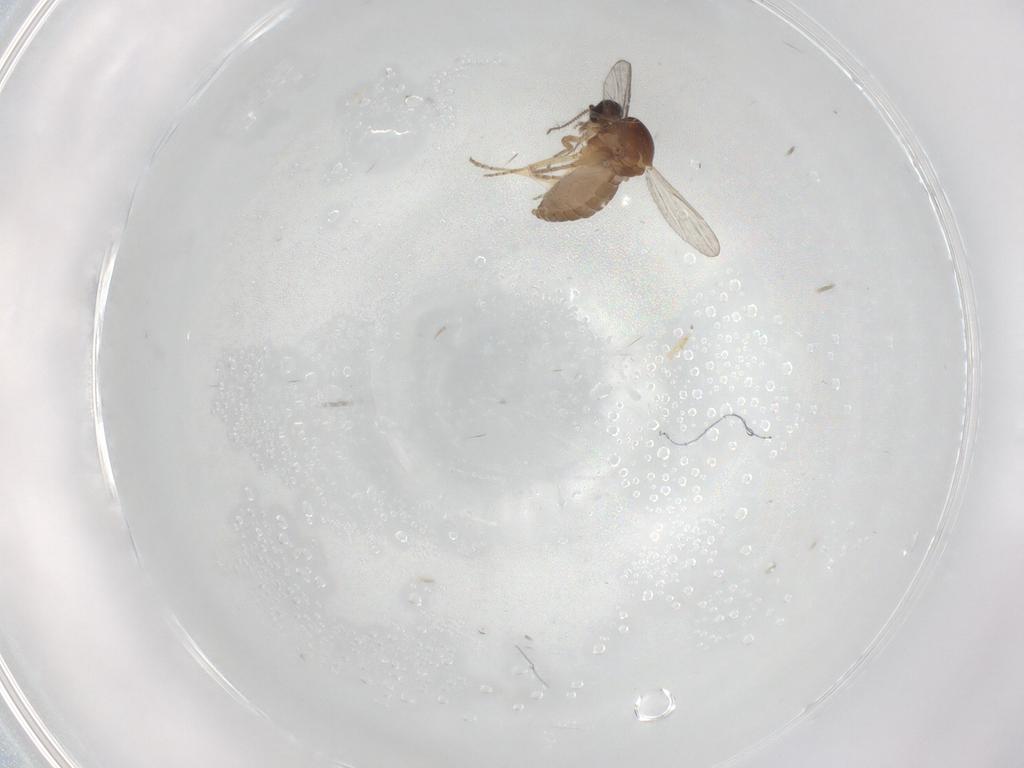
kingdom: Animalia
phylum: Arthropoda
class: Insecta
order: Diptera
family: Ceratopogonidae
